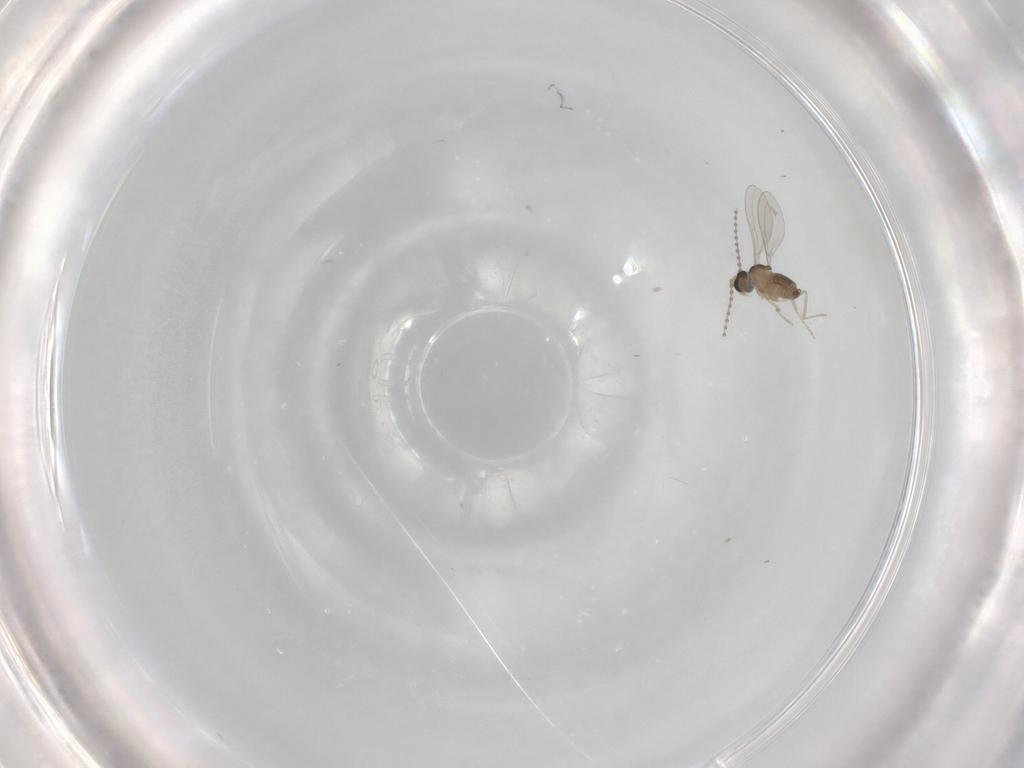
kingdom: Animalia
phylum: Arthropoda
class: Insecta
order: Diptera
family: Cecidomyiidae
